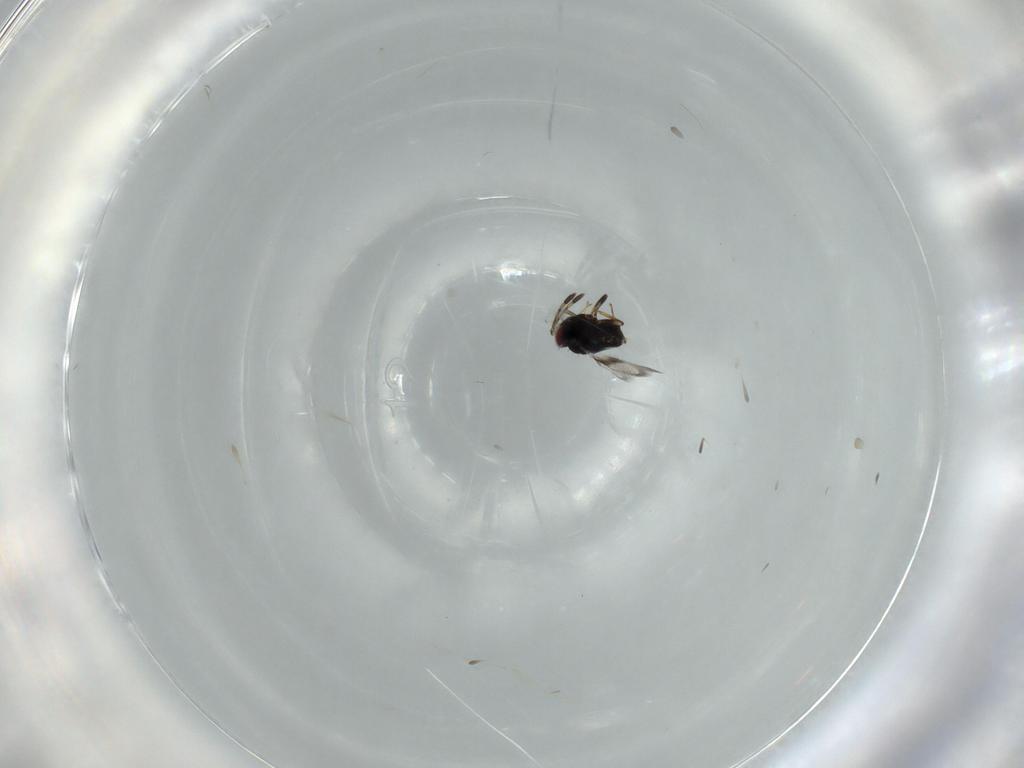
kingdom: Animalia
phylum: Arthropoda
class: Insecta
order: Hymenoptera
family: Azotidae
